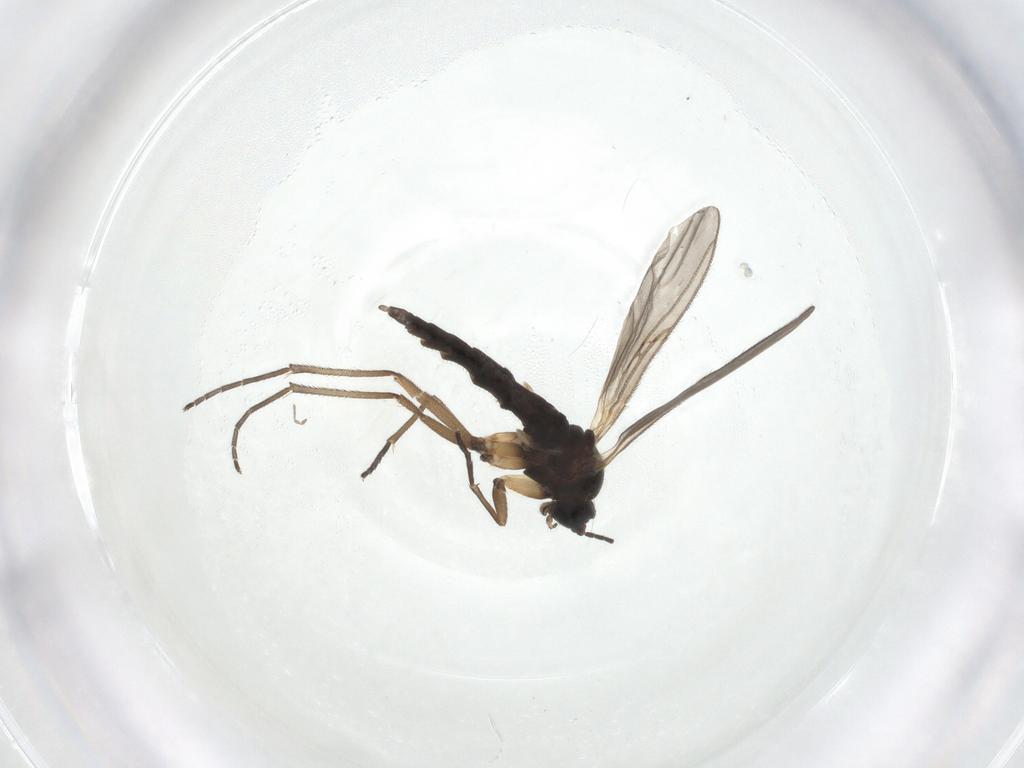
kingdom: Animalia
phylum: Arthropoda
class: Insecta
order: Diptera
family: Sciaridae
